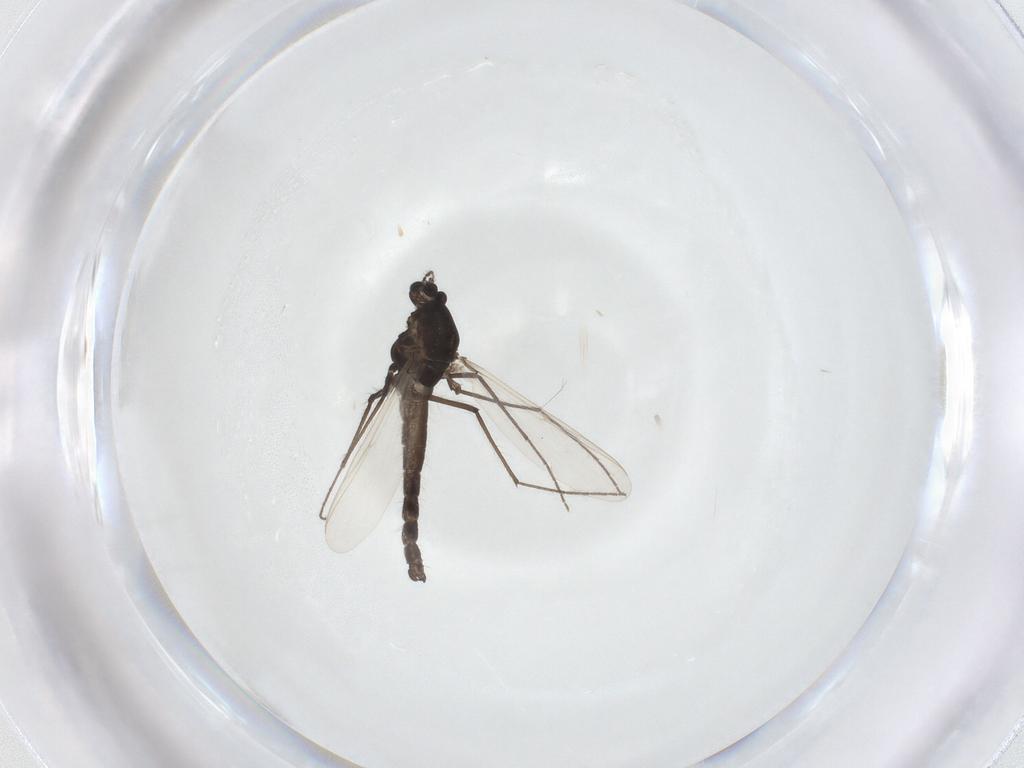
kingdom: Animalia
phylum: Arthropoda
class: Insecta
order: Diptera
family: Chironomidae
